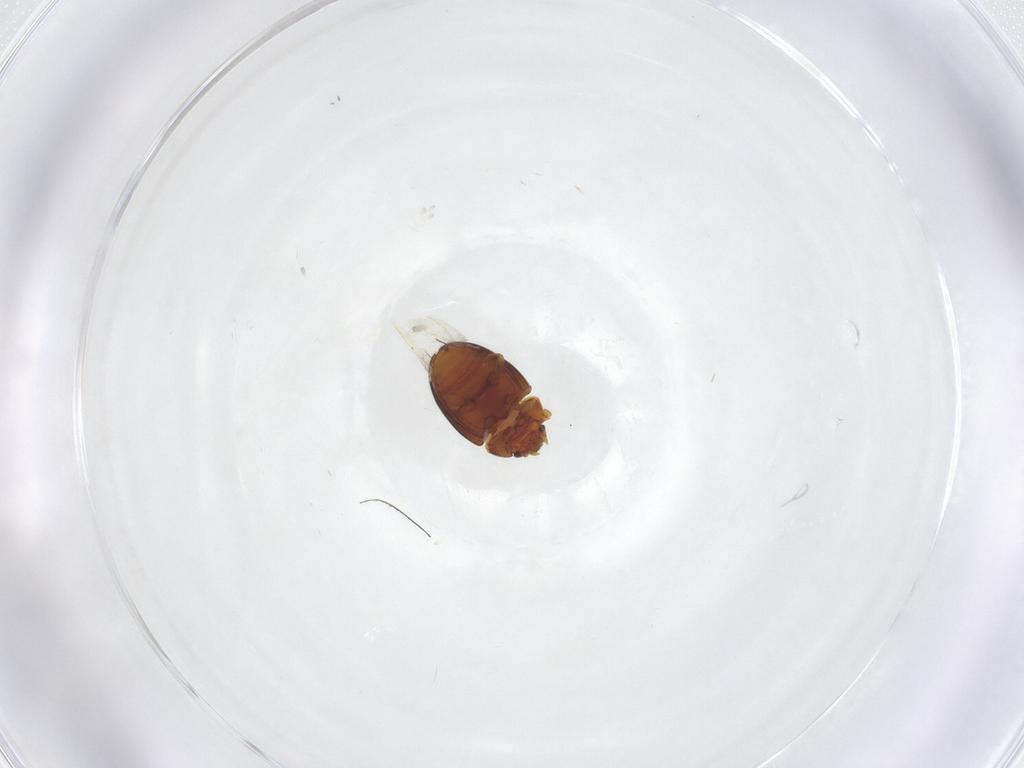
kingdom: Animalia
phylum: Arthropoda
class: Insecta
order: Coleoptera
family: Eupsilobiidae
